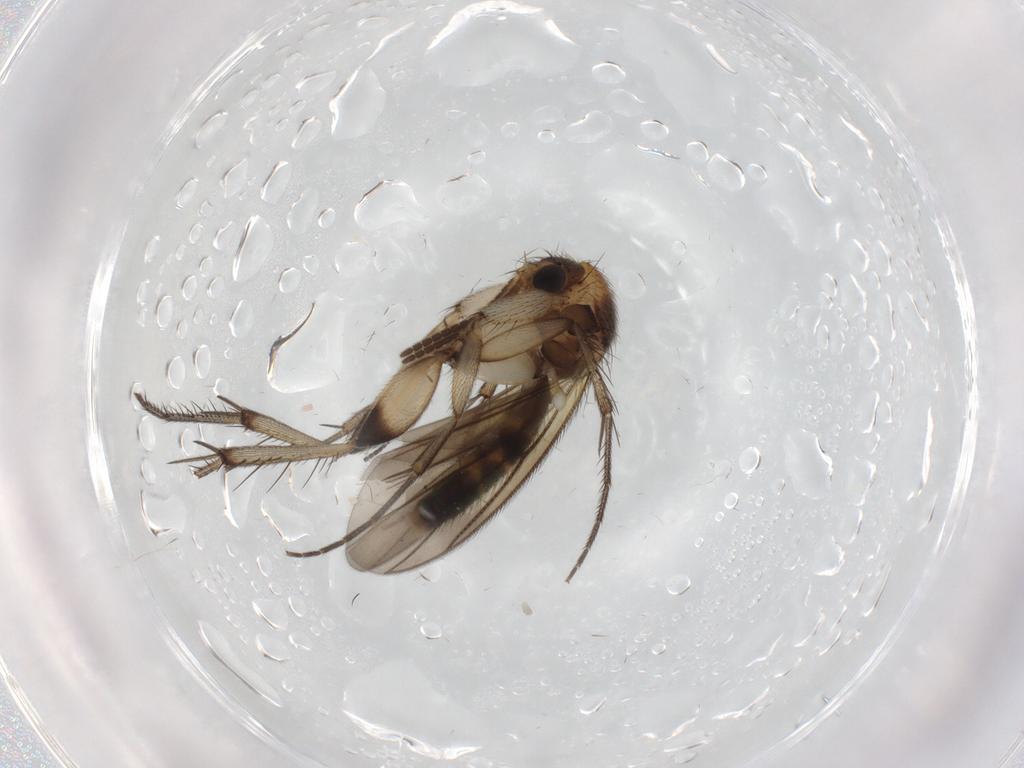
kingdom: Animalia
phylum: Arthropoda
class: Insecta
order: Diptera
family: Mycetophilidae
